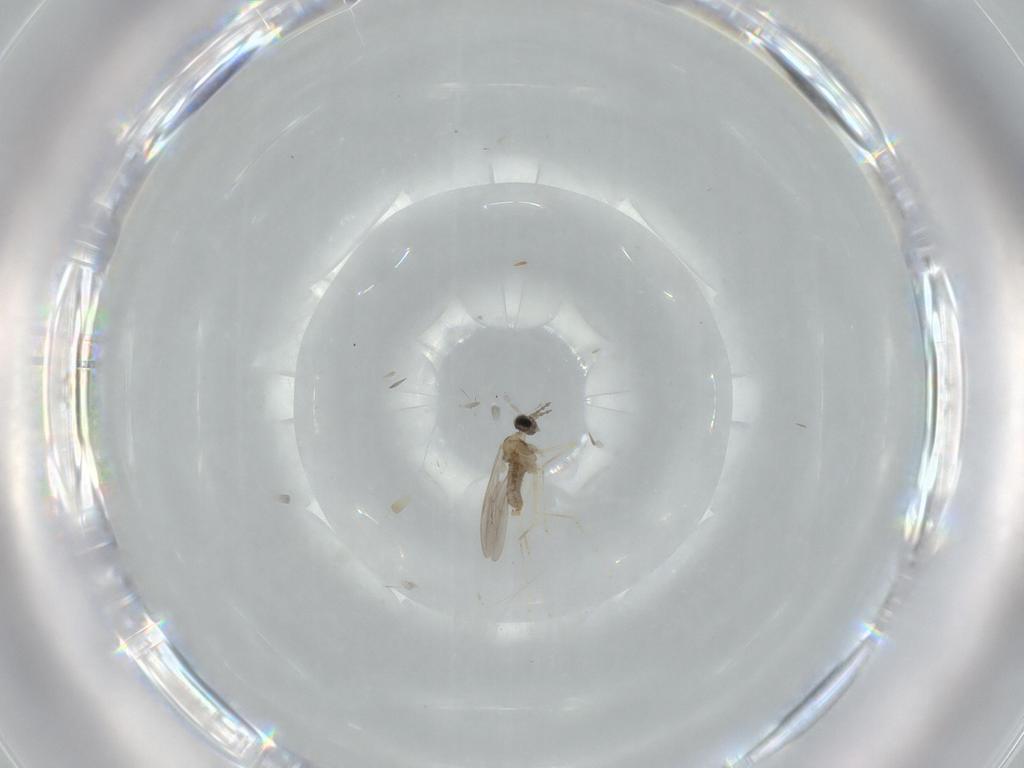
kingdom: Animalia
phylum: Arthropoda
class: Insecta
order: Diptera
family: Cecidomyiidae
